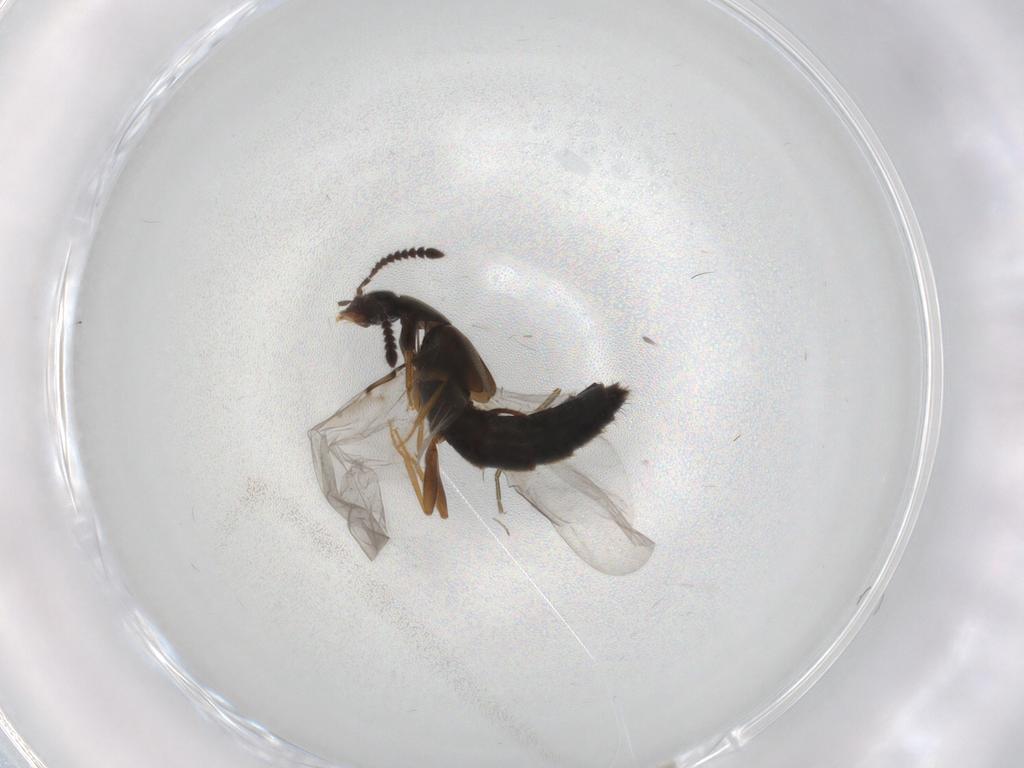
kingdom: Animalia
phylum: Arthropoda
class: Insecta
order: Coleoptera
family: Staphylinidae
